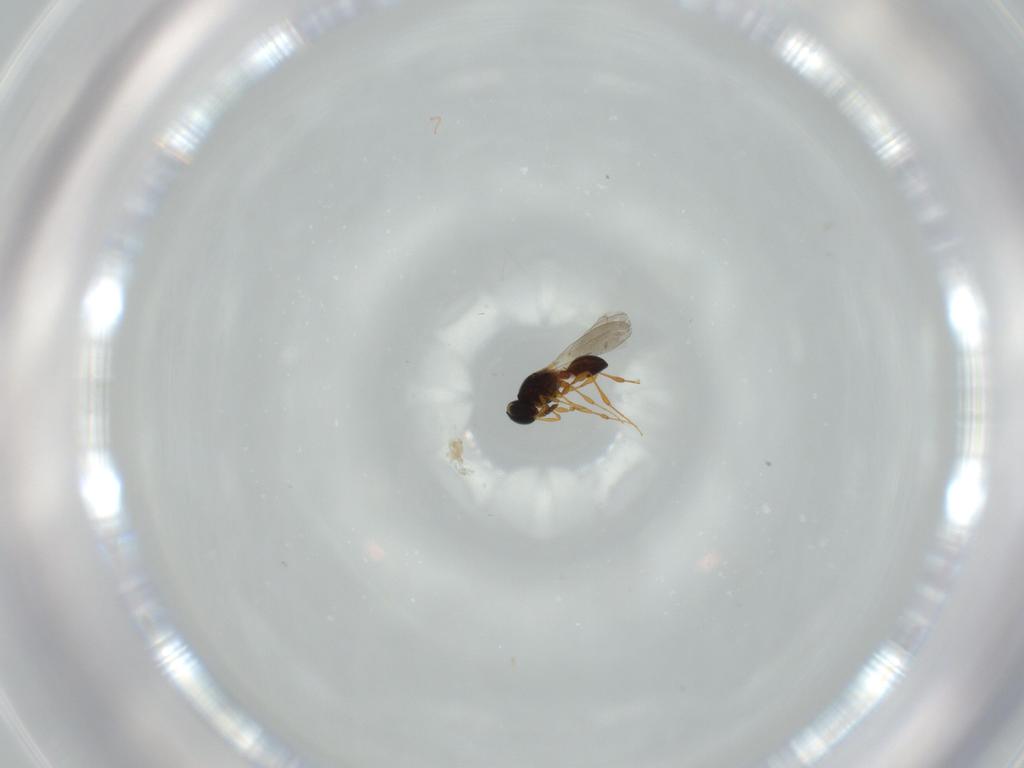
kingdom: Animalia
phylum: Arthropoda
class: Insecta
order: Hymenoptera
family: Platygastridae
